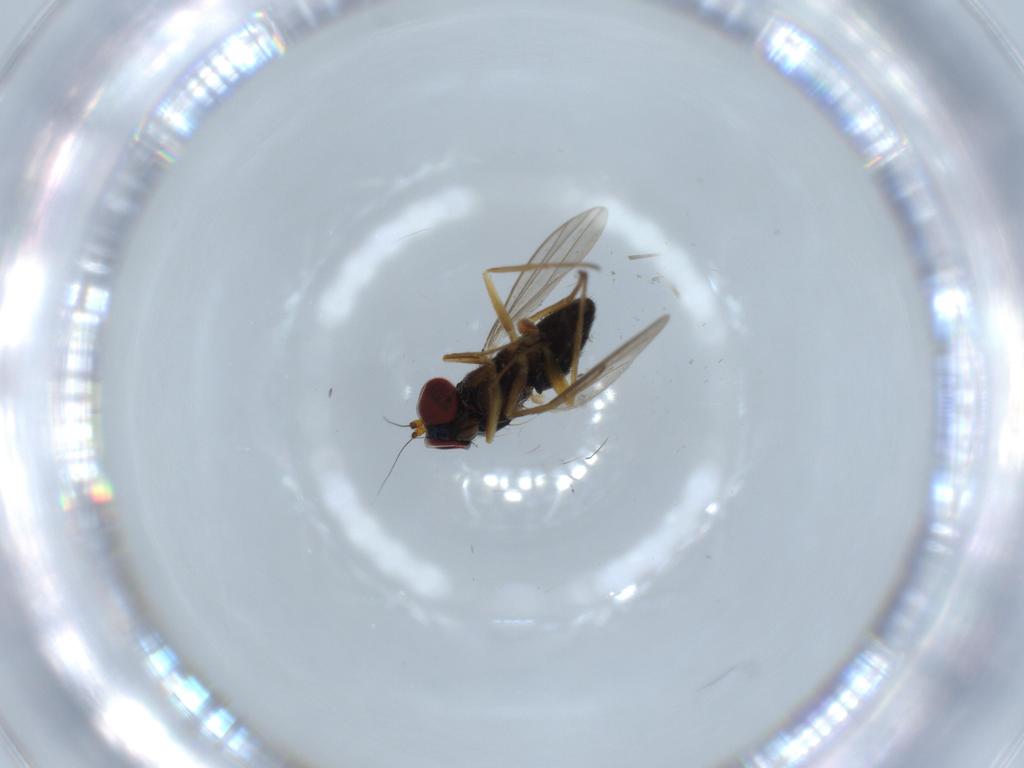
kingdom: Animalia
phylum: Arthropoda
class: Insecta
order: Diptera
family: Dolichopodidae
